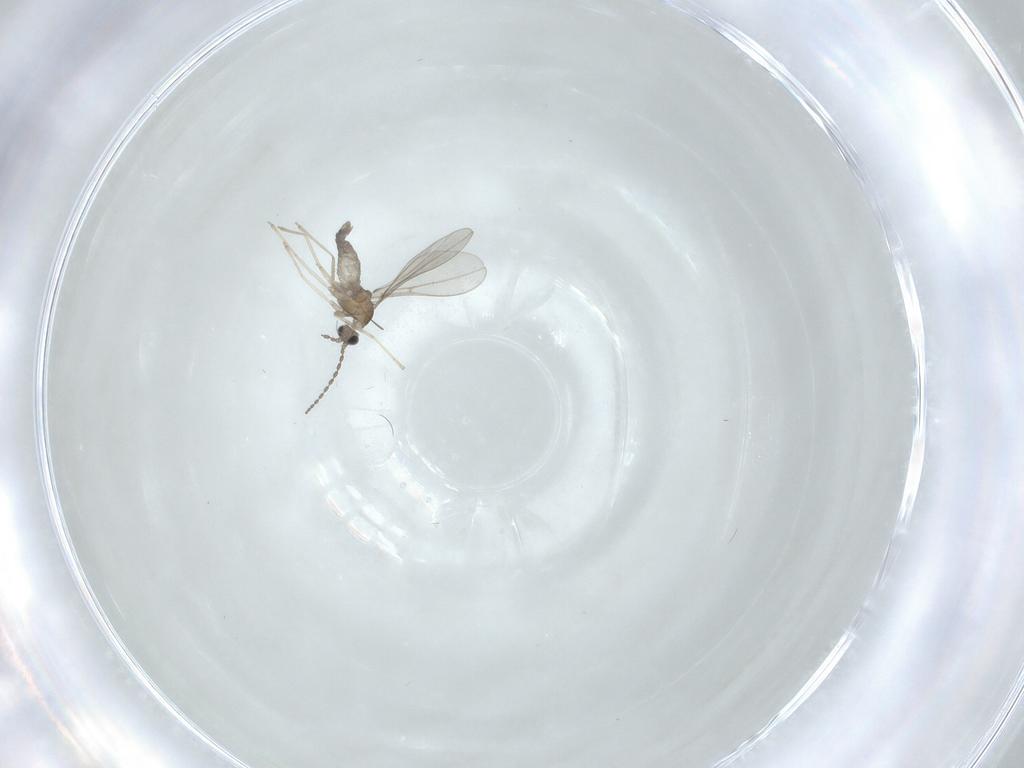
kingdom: Animalia
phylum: Arthropoda
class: Insecta
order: Diptera
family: Cecidomyiidae
